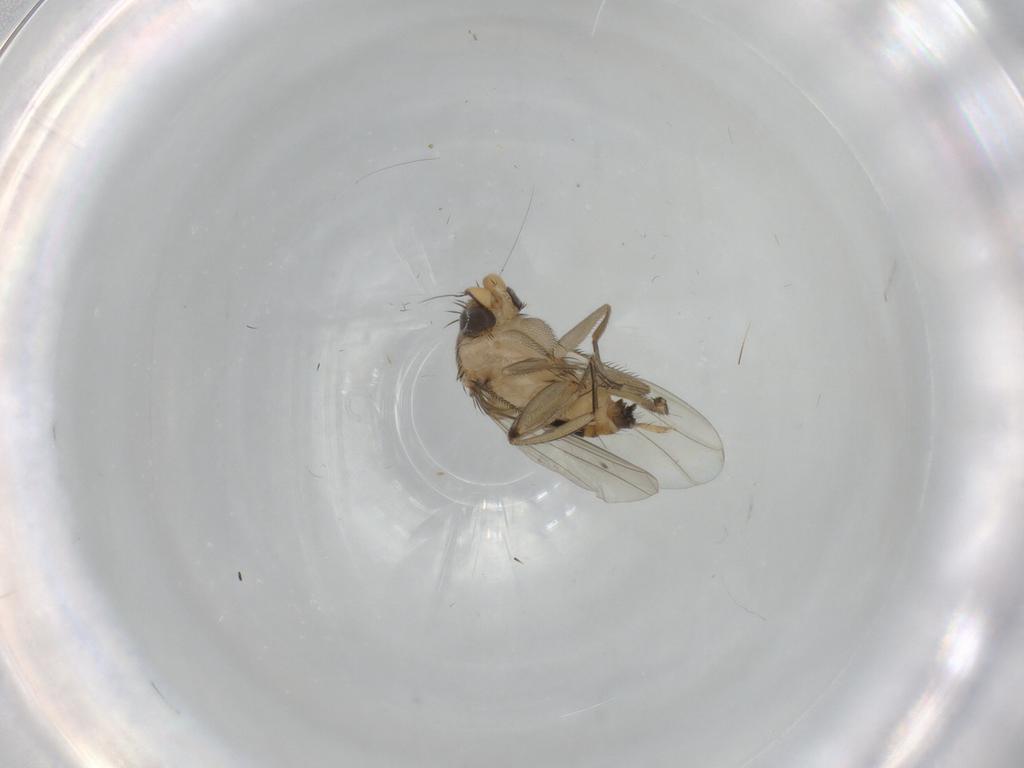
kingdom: Animalia
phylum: Arthropoda
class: Insecta
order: Diptera
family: Phoridae
